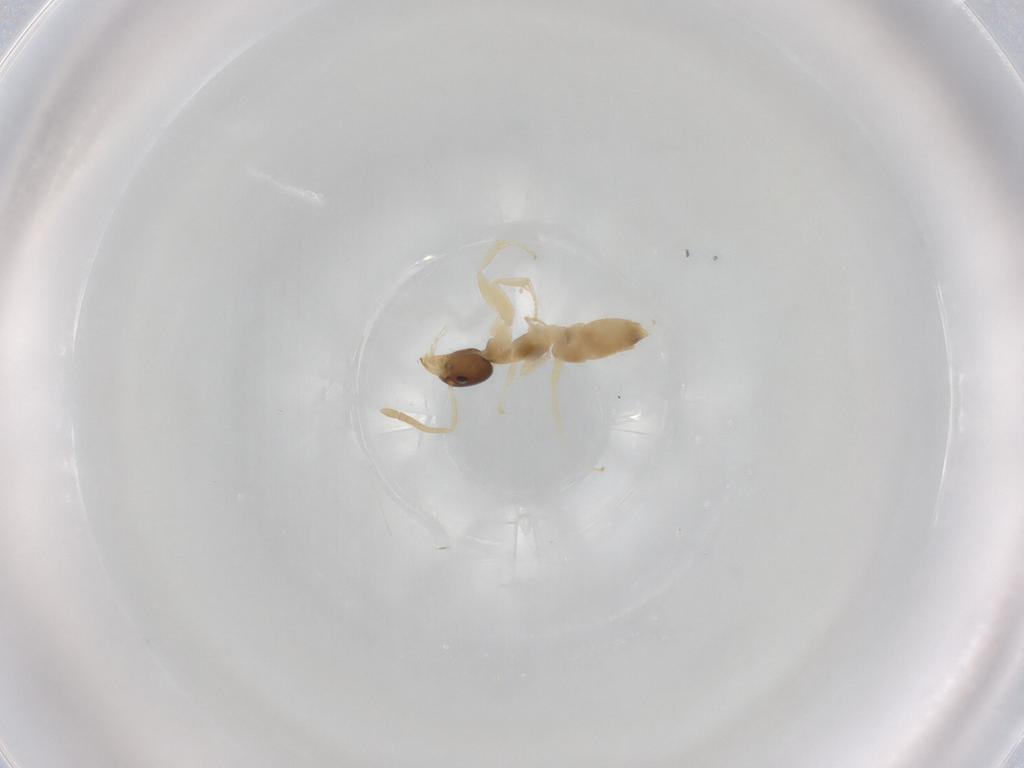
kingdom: Animalia
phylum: Arthropoda
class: Insecta
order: Hymenoptera
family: Formicidae
